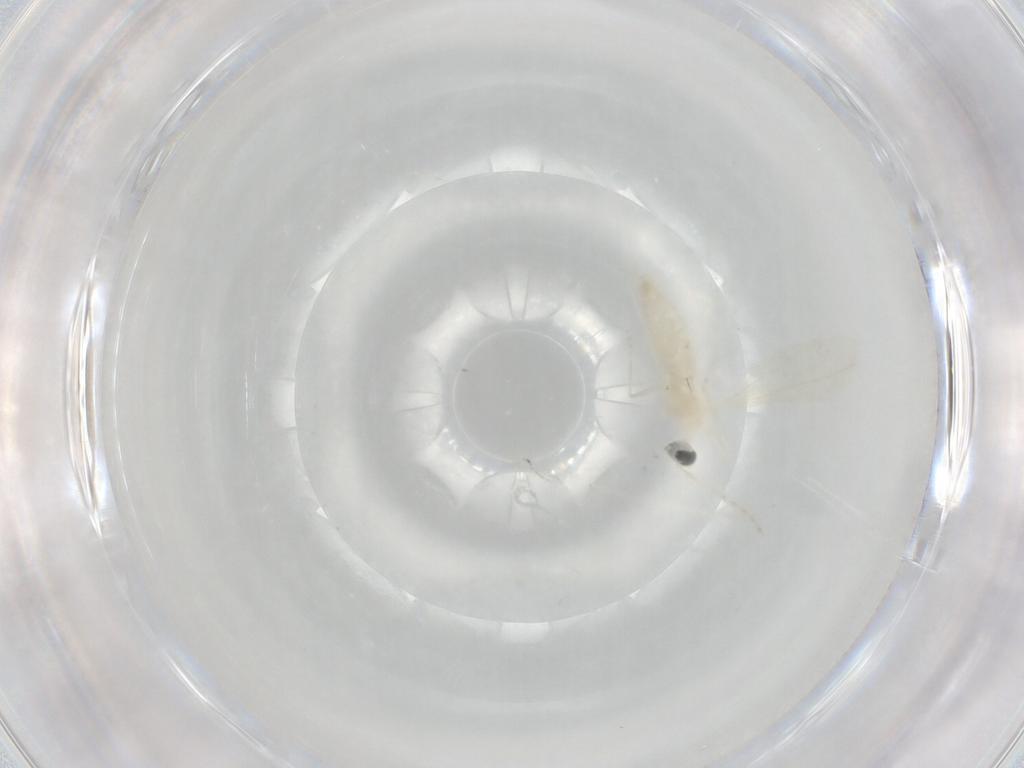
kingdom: Animalia
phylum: Arthropoda
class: Insecta
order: Diptera
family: Cecidomyiidae
